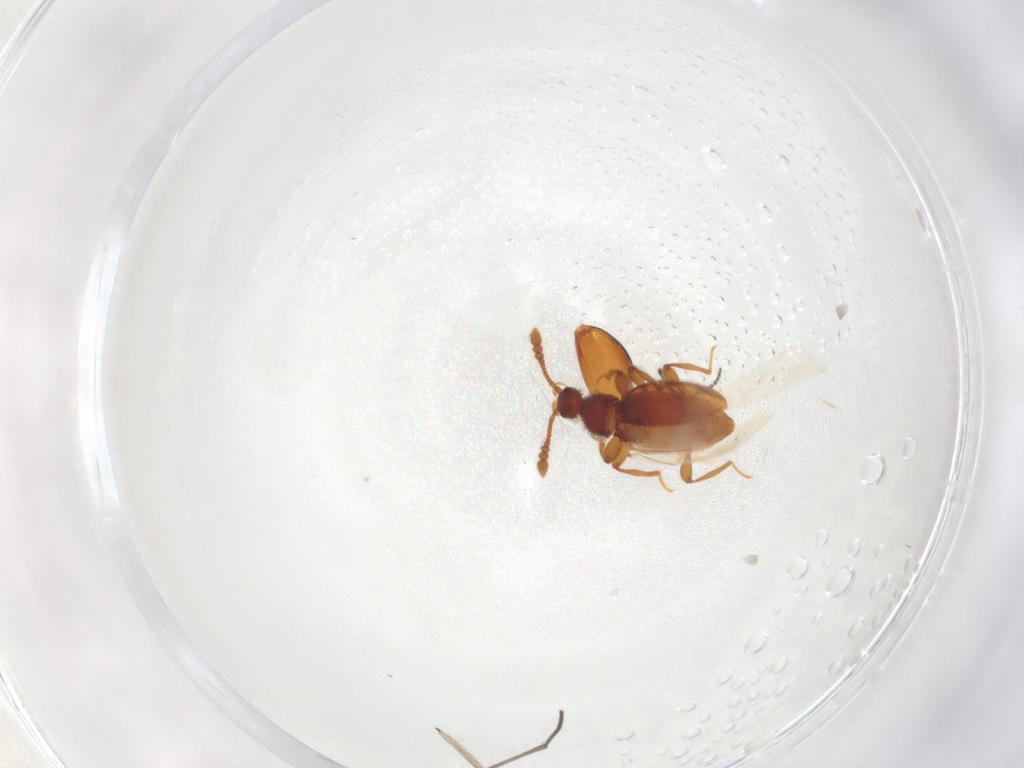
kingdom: Animalia
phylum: Arthropoda
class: Insecta
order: Coleoptera
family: Staphylinidae
